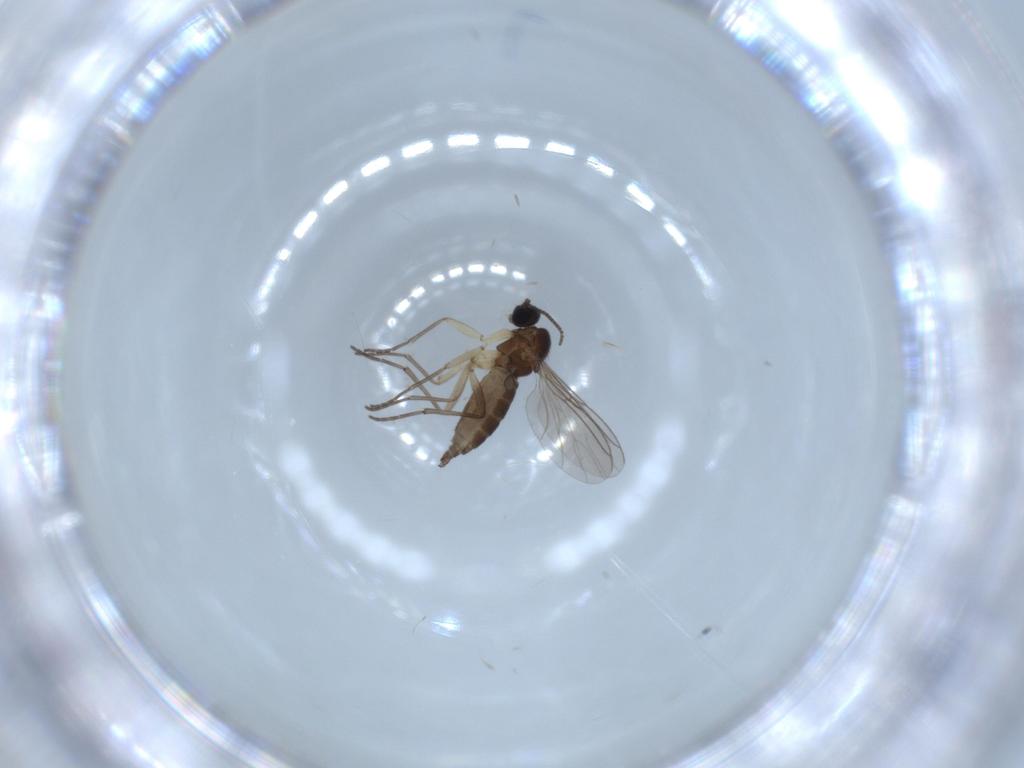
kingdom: Animalia
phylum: Arthropoda
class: Insecta
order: Diptera
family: Sciaridae
